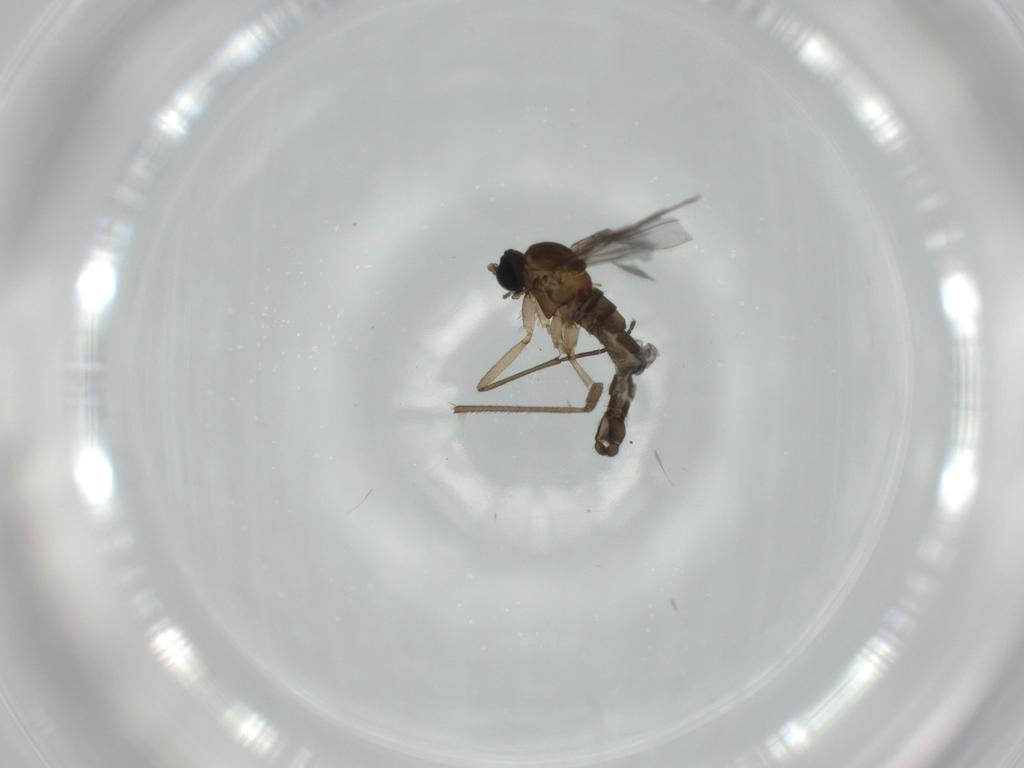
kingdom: Animalia
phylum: Arthropoda
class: Insecta
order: Diptera
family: Sciaridae
